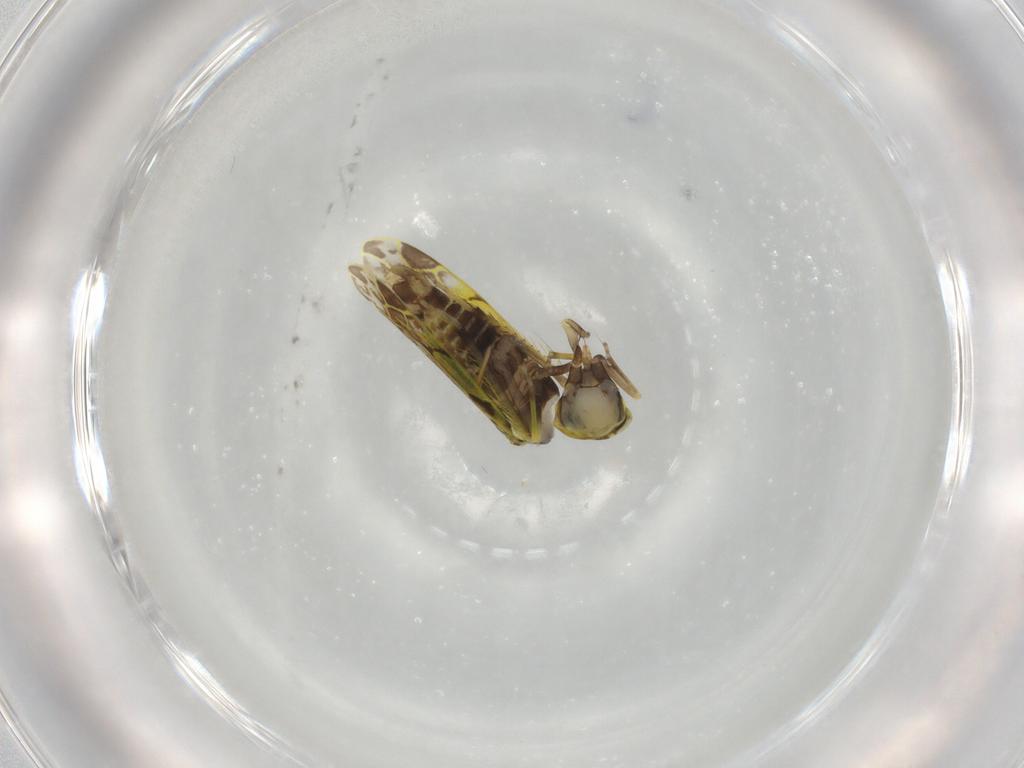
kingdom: Animalia
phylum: Arthropoda
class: Insecta
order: Hemiptera
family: Cicadellidae
